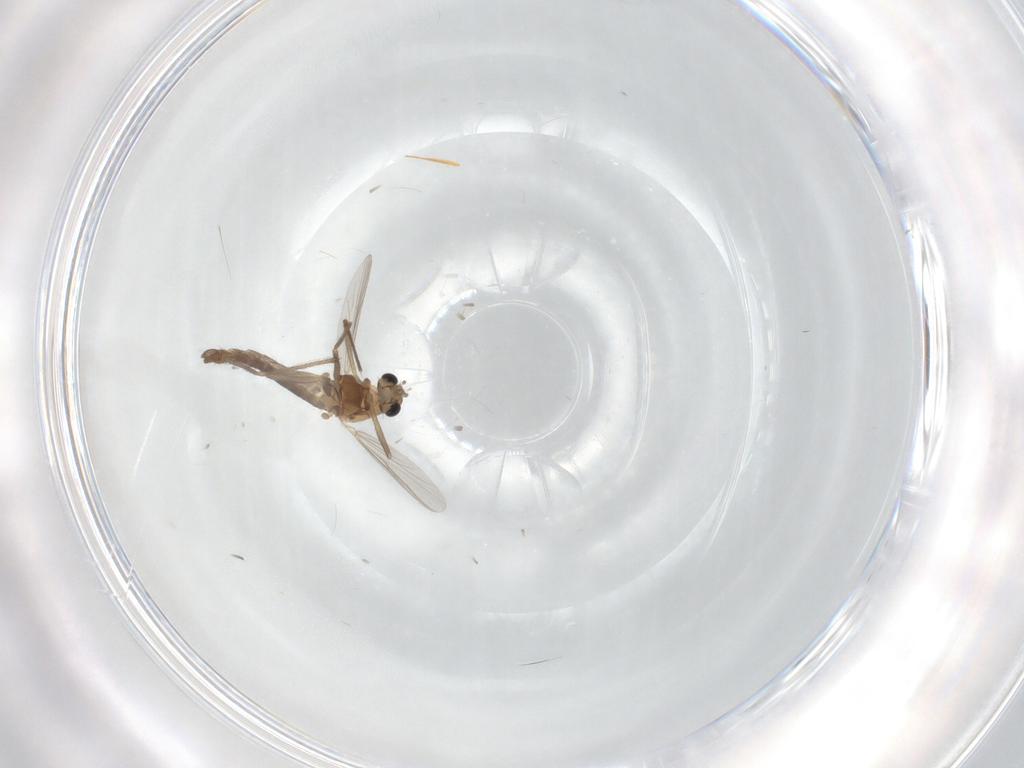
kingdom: Animalia
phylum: Arthropoda
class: Insecta
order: Diptera
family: Chironomidae
